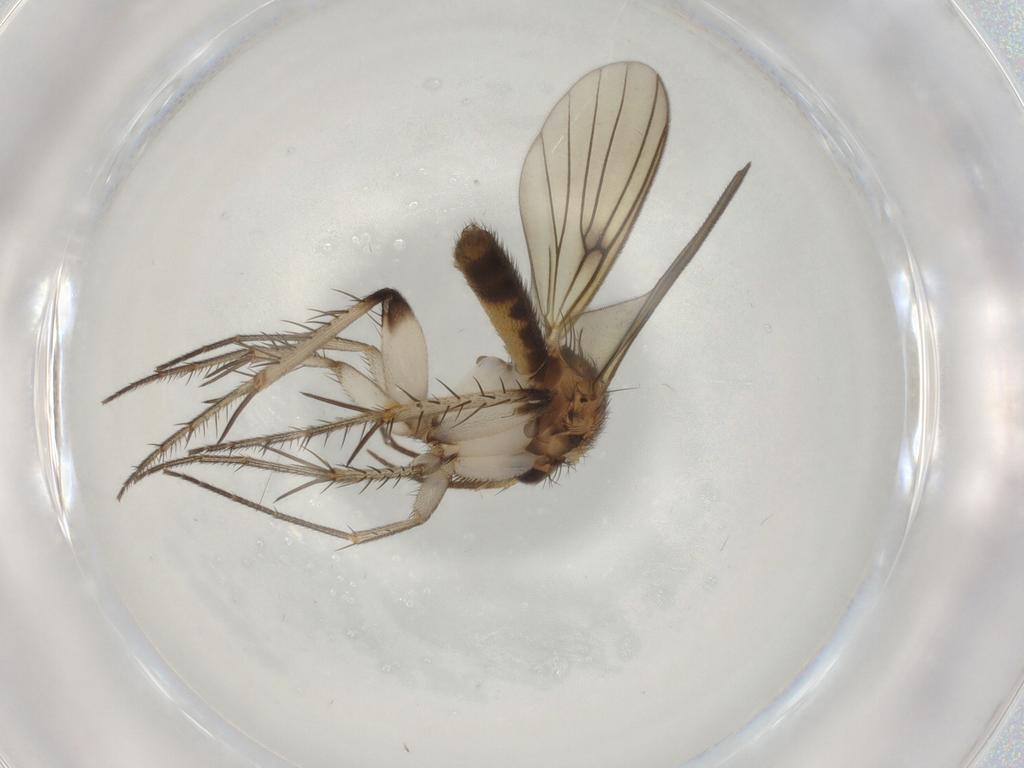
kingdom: Animalia
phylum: Arthropoda
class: Insecta
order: Diptera
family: Mycetophilidae
